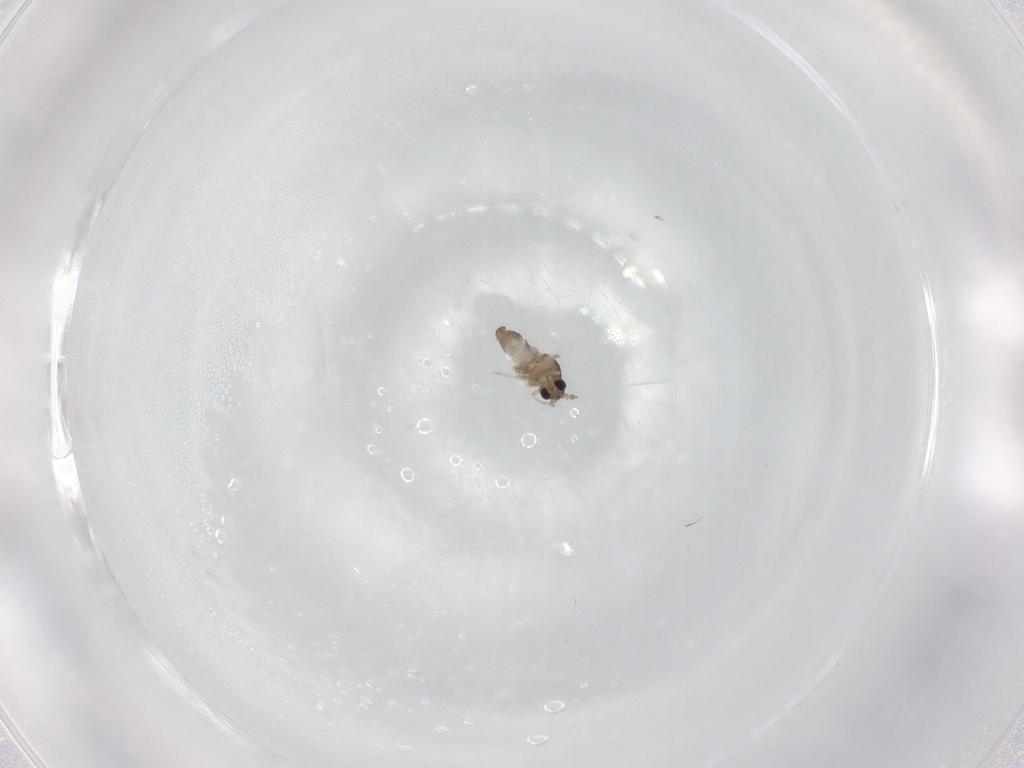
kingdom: Animalia
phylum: Arthropoda
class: Insecta
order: Diptera
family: Cecidomyiidae
